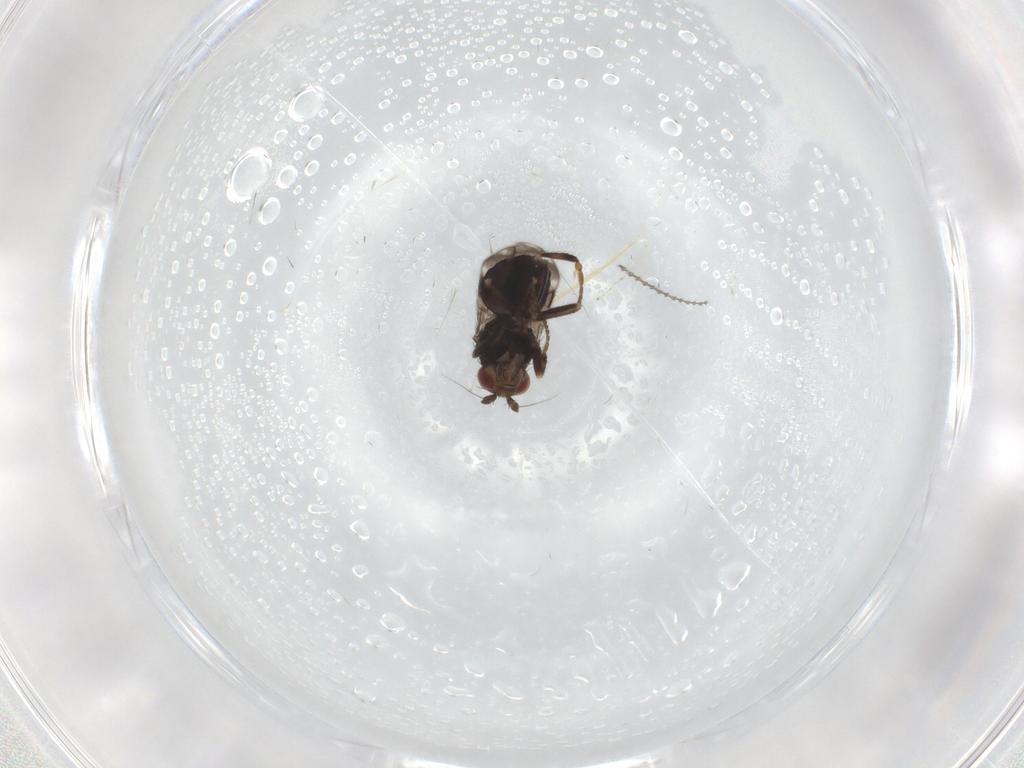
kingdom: Animalia
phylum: Arthropoda
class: Insecta
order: Diptera
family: Sphaeroceridae
